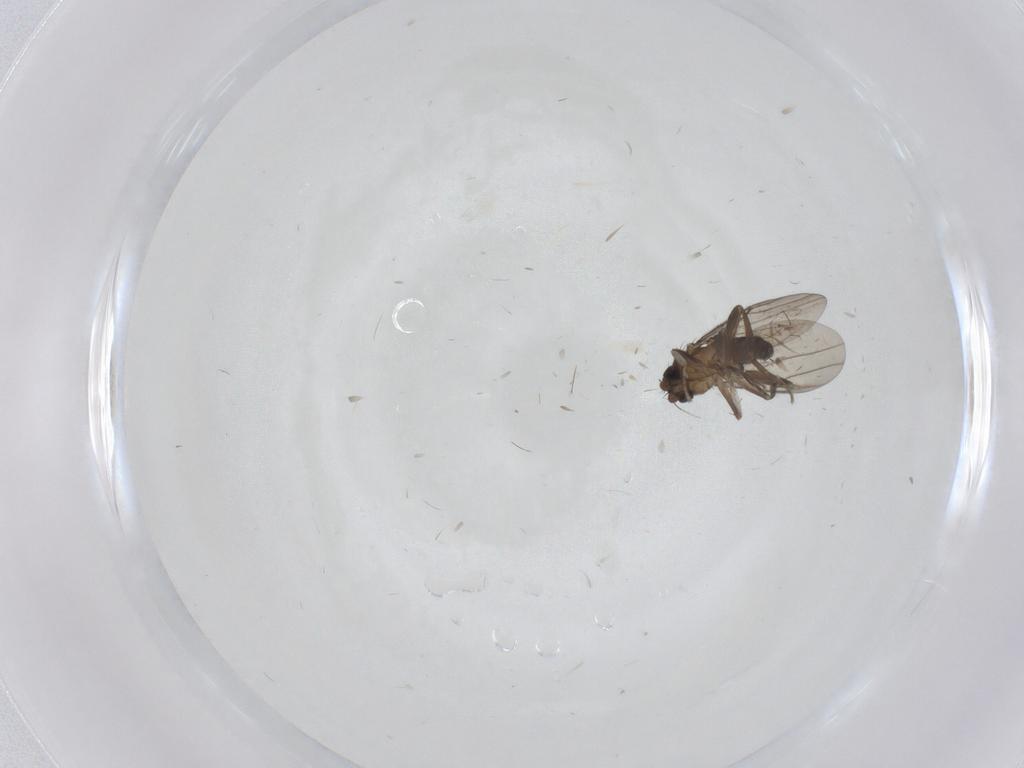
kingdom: Animalia
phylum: Arthropoda
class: Insecta
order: Diptera
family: Chironomidae
